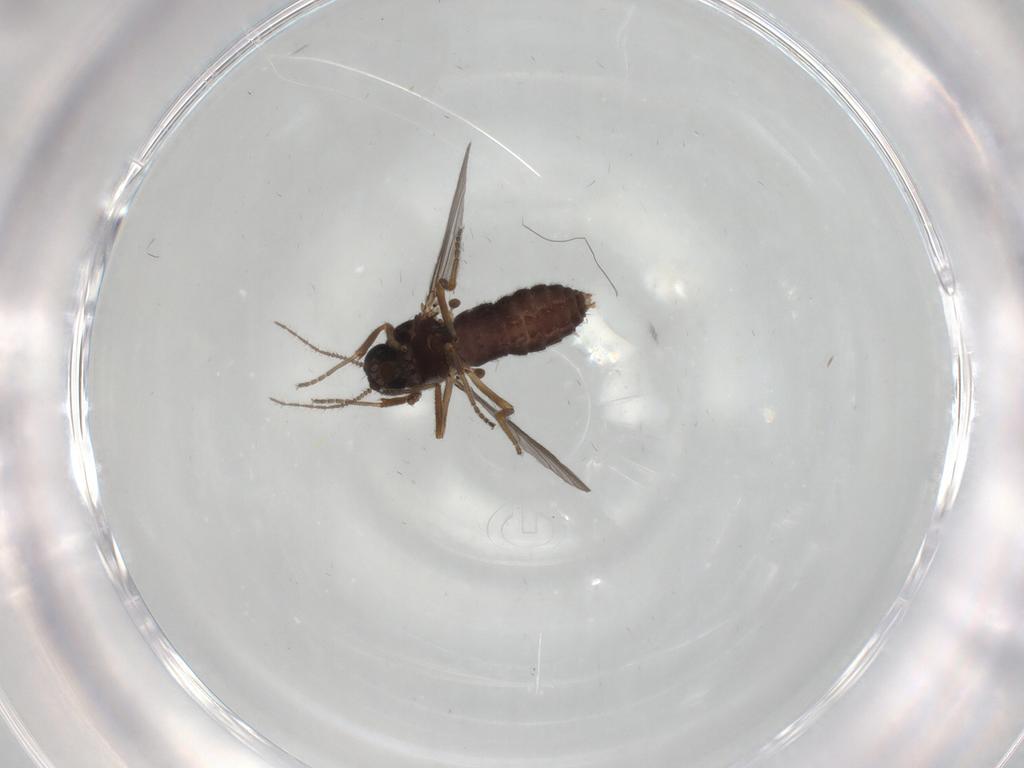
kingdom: Animalia
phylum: Arthropoda
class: Insecta
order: Diptera
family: Ceratopogonidae
